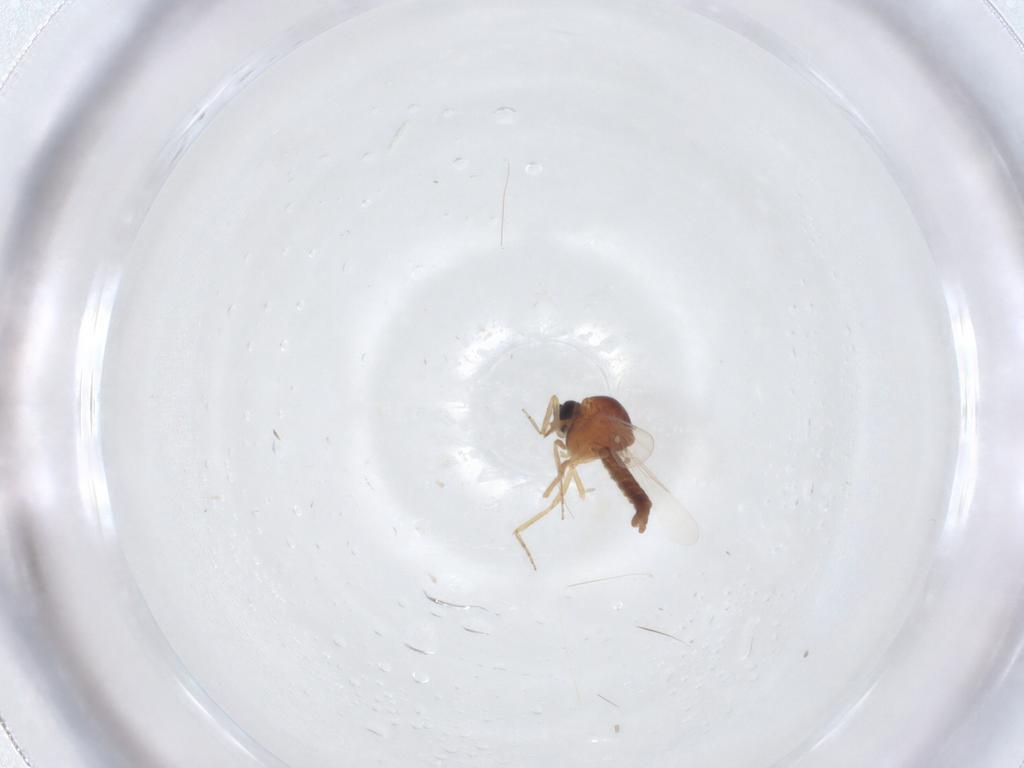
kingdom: Animalia
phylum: Arthropoda
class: Insecta
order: Diptera
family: Ceratopogonidae
